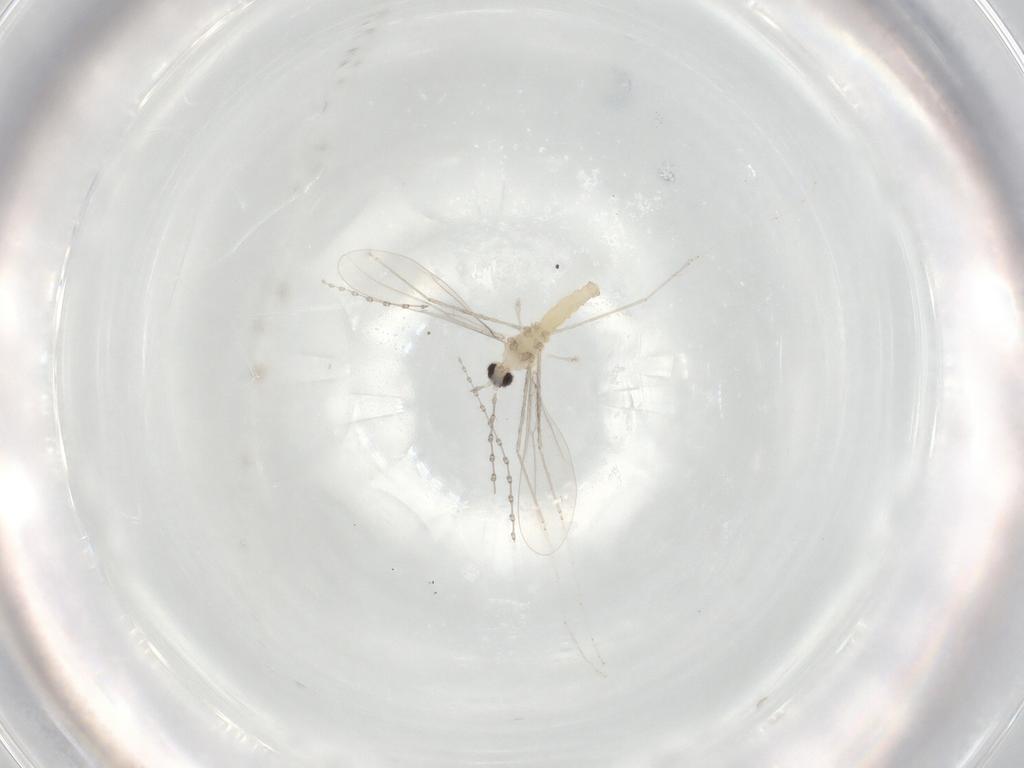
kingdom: Animalia
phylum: Arthropoda
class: Insecta
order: Diptera
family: Cecidomyiidae
